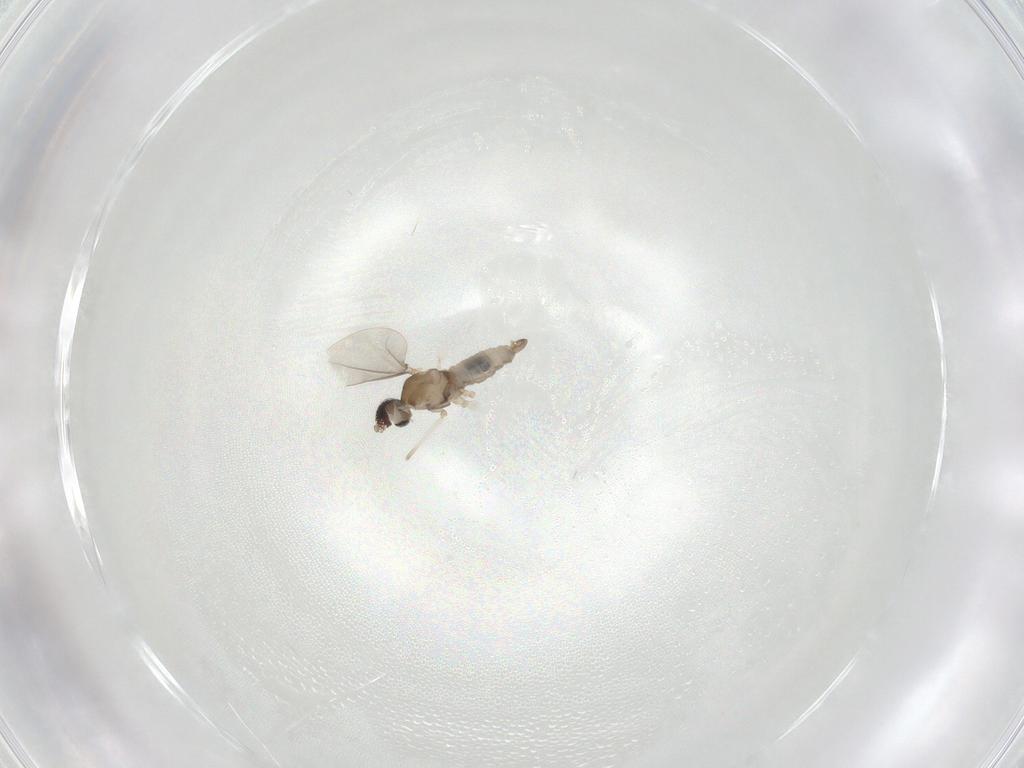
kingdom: Animalia
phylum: Arthropoda
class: Insecta
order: Diptera
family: Cecidomyiidae
